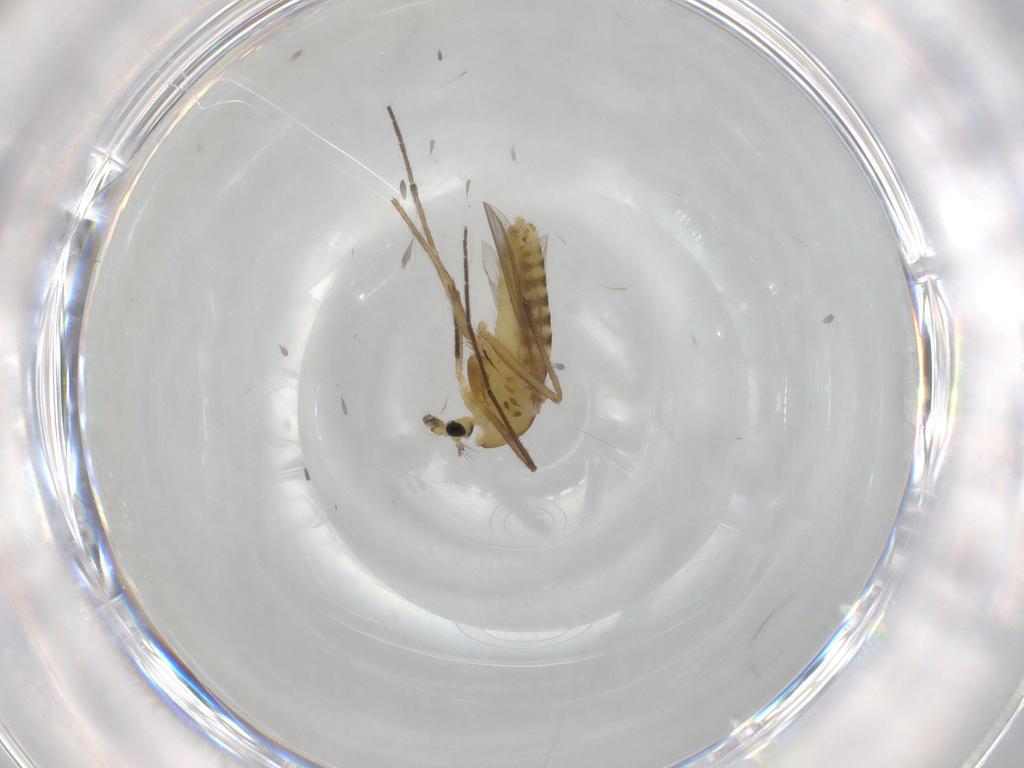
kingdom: Animalia
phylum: Arthropoda
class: Insecta
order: Diptera
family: Chironomidae
